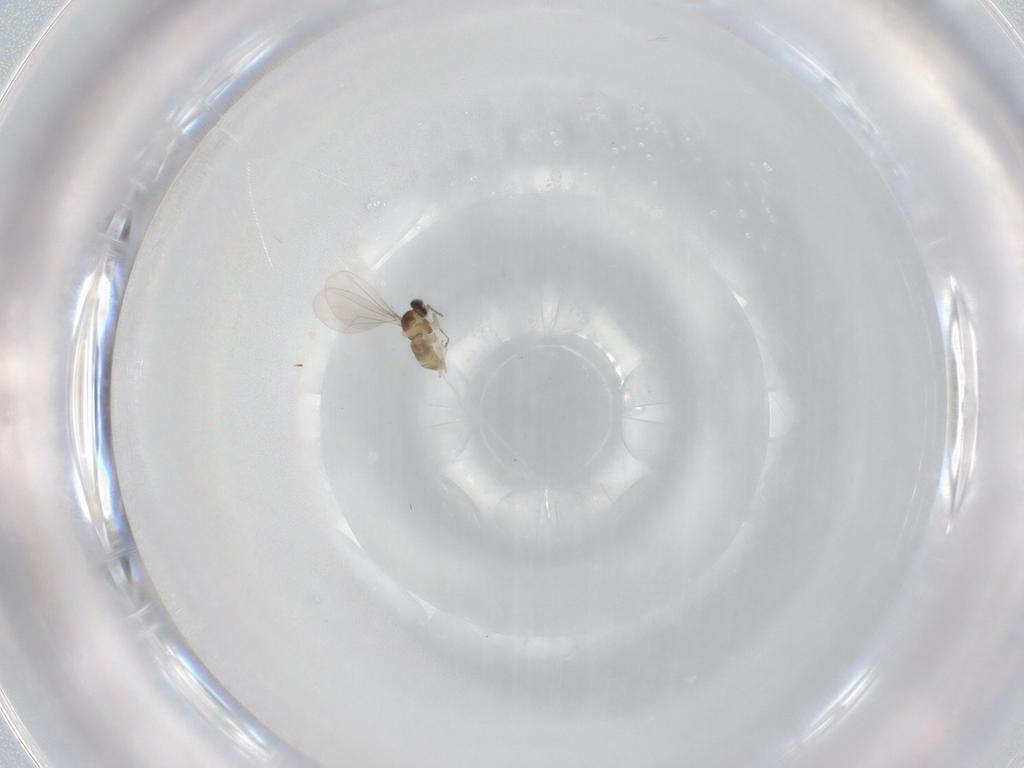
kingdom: Animalia
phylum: Arthropoda
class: Insecta
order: Diptera
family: Cecidomyiidae
